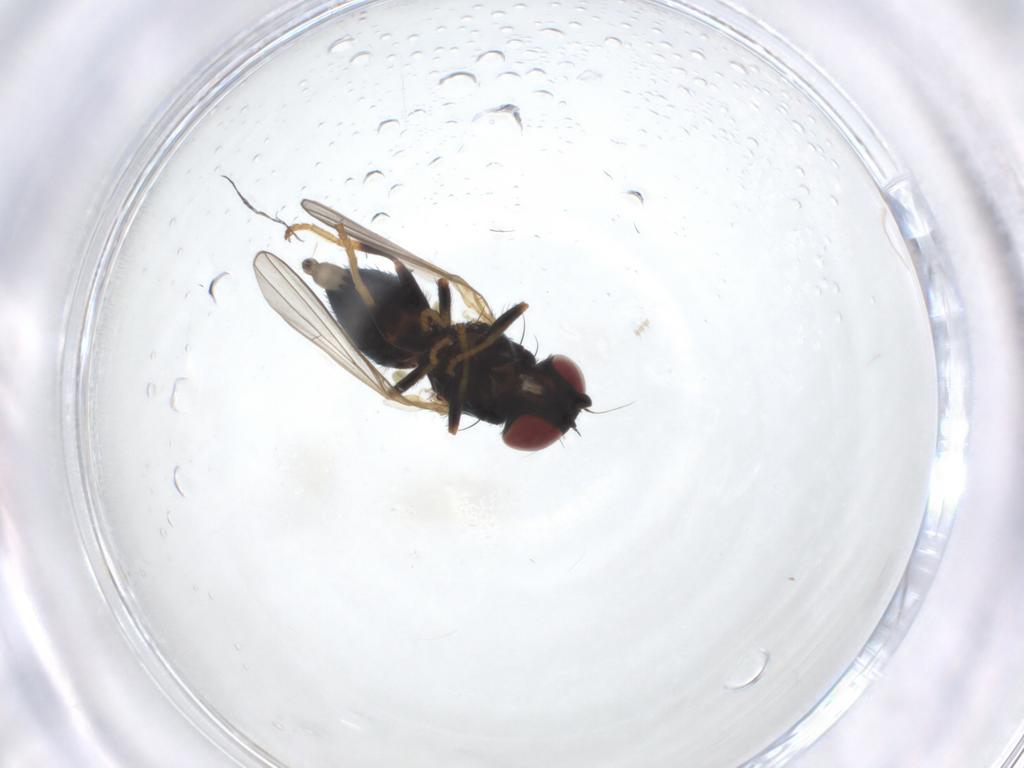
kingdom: Animalia
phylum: Arthropoda
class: Insecta
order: Diptera
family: Chamaemyiidae
